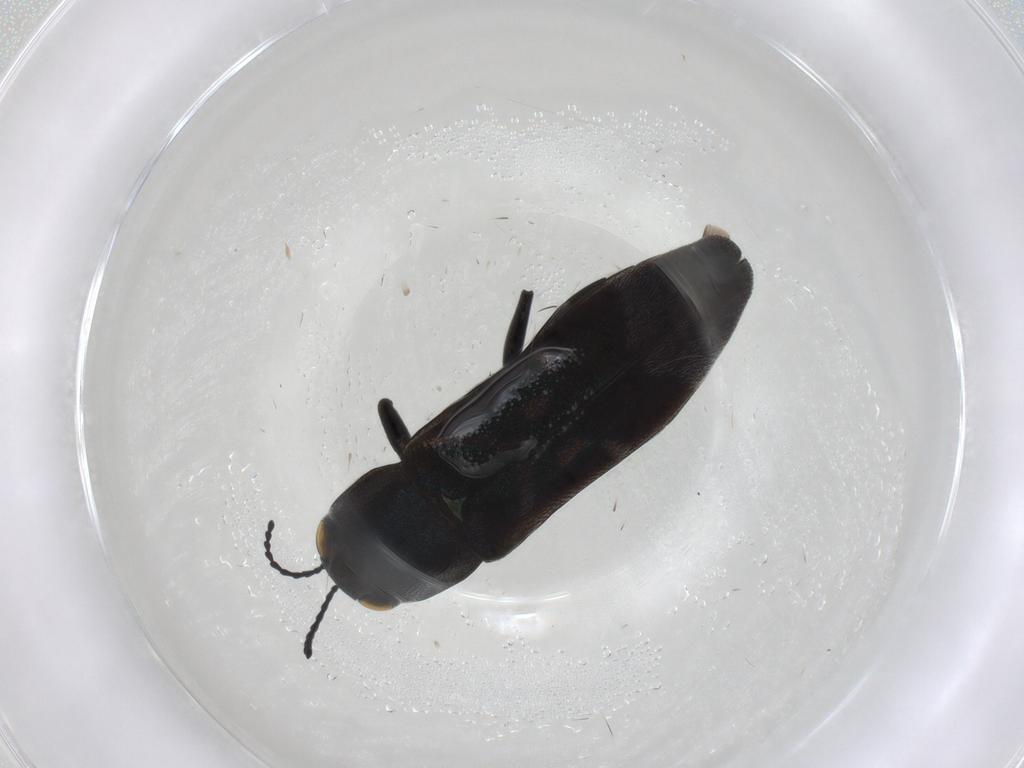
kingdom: Animalia
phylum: Arthropoda
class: Insecta
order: Coleoptera
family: Buprestidae
